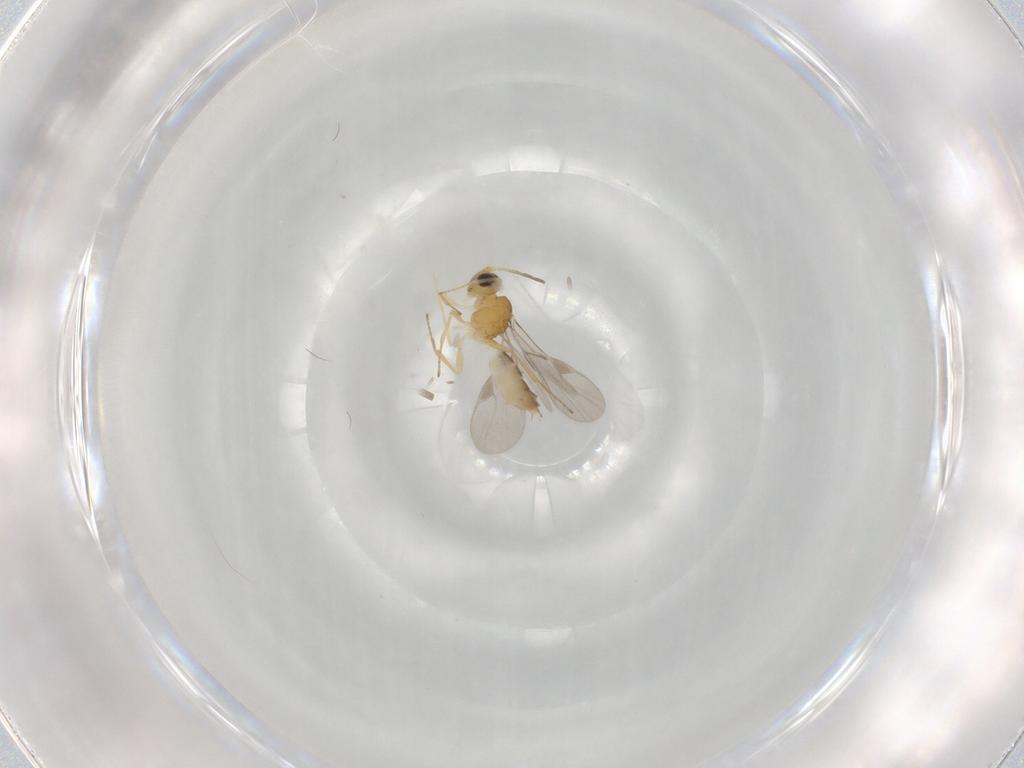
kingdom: Animalia
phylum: Arthropoda
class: Insecta
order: Hymenoptera
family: Braconidae
